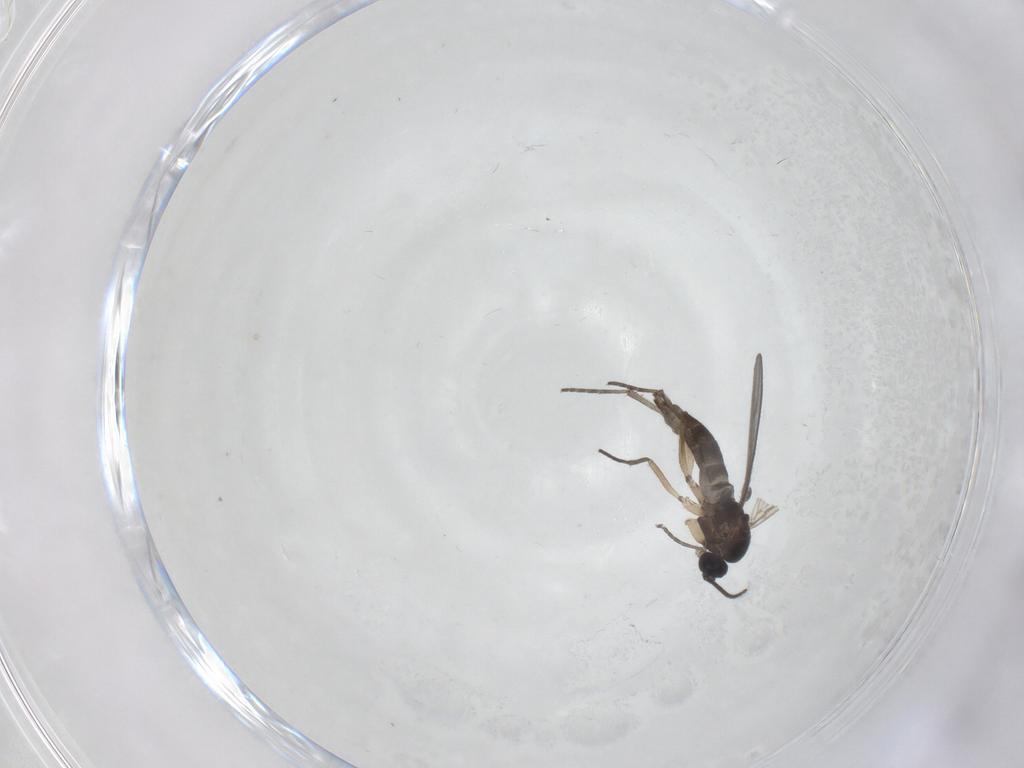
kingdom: Animalia
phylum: Arthropoda
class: Insecta
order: Diptera
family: Sciaridae
